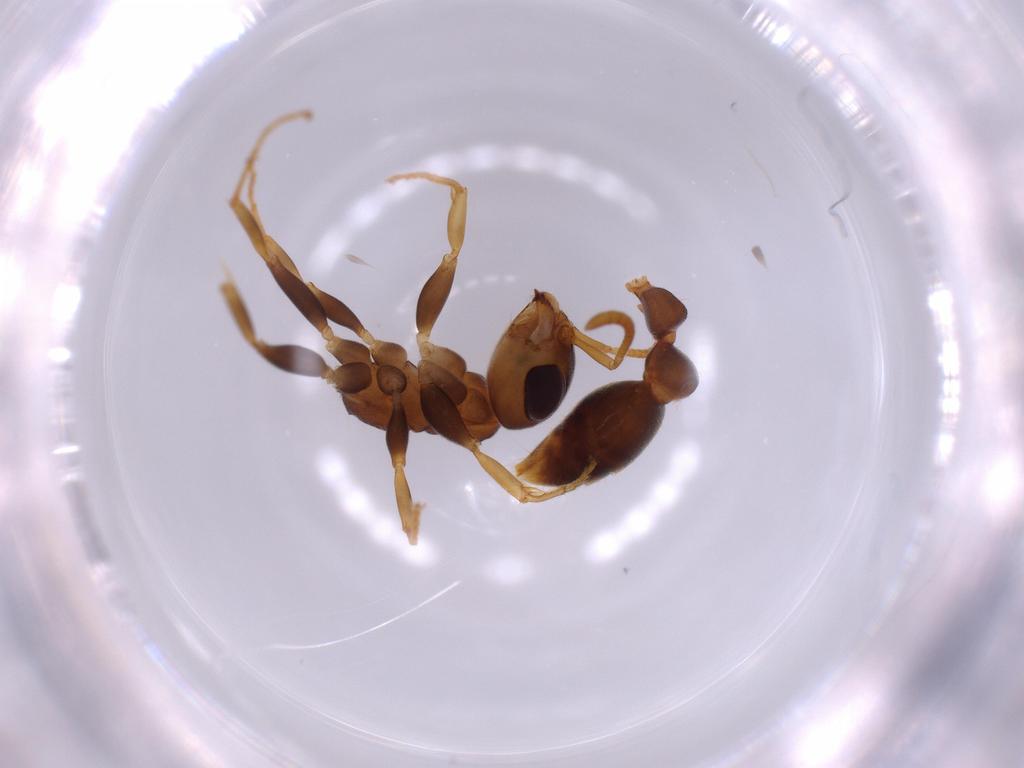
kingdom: Animalia
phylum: Arthropoda
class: Insecta
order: Hymenoptera
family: Formicidae
